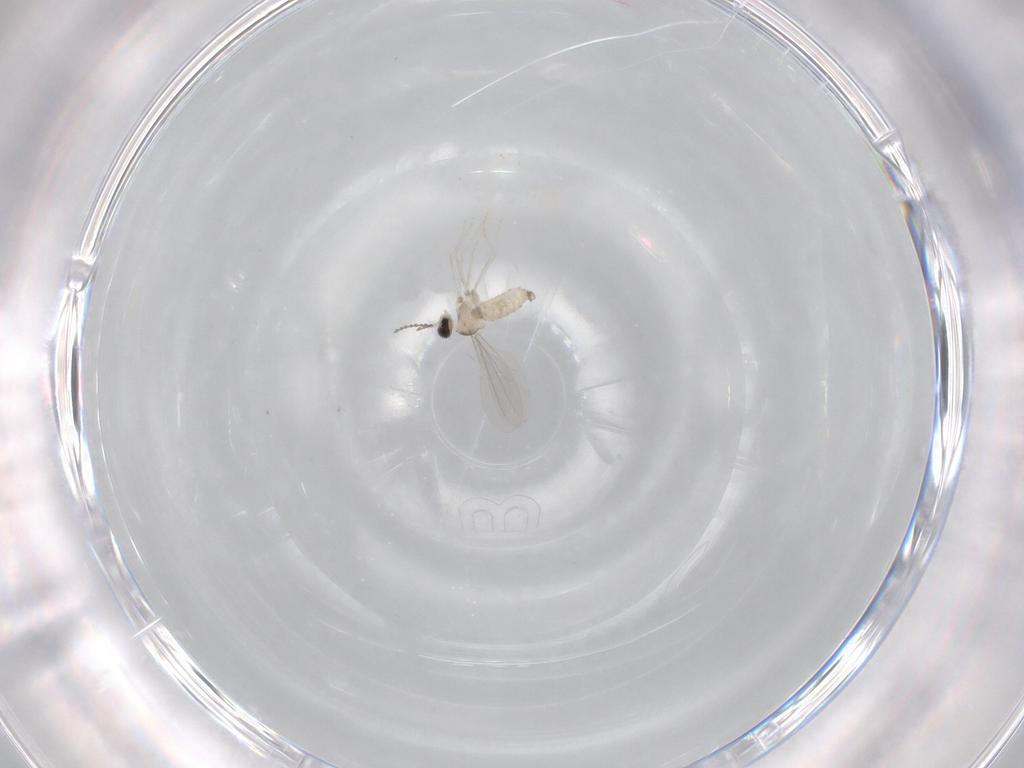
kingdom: Animalia
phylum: Arthropoda
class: Insecta
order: Diptera
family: Cecidomyiidae
